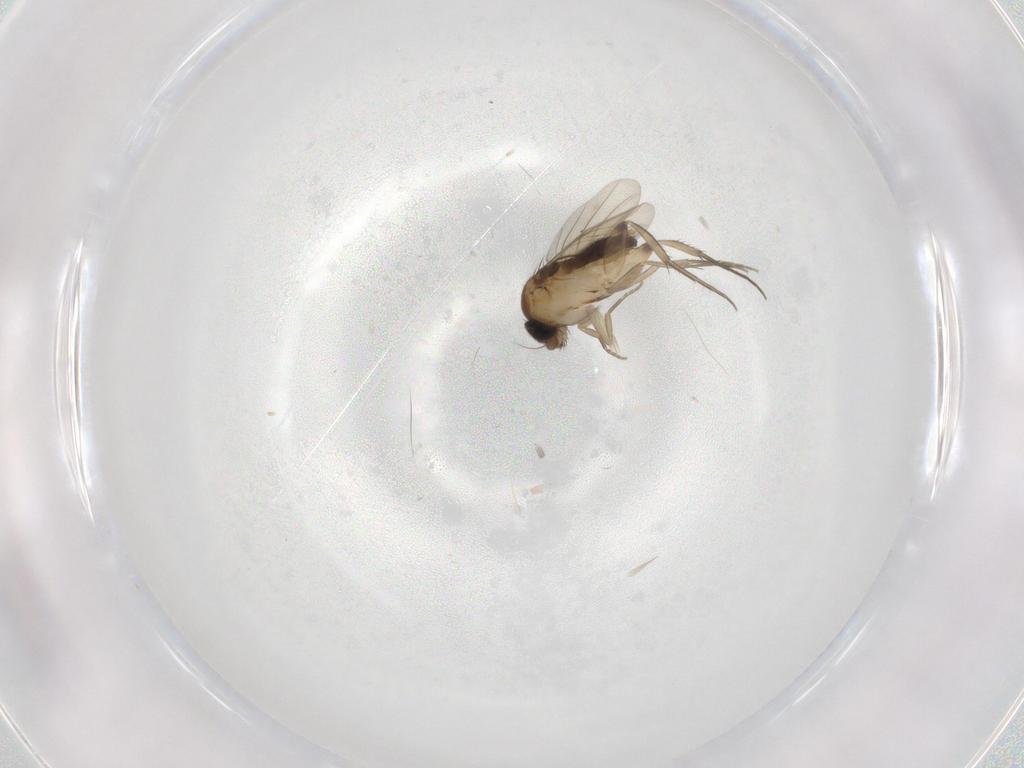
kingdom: Animalia
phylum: Arthropoda
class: Insecta
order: Diptera
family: Phoridae
